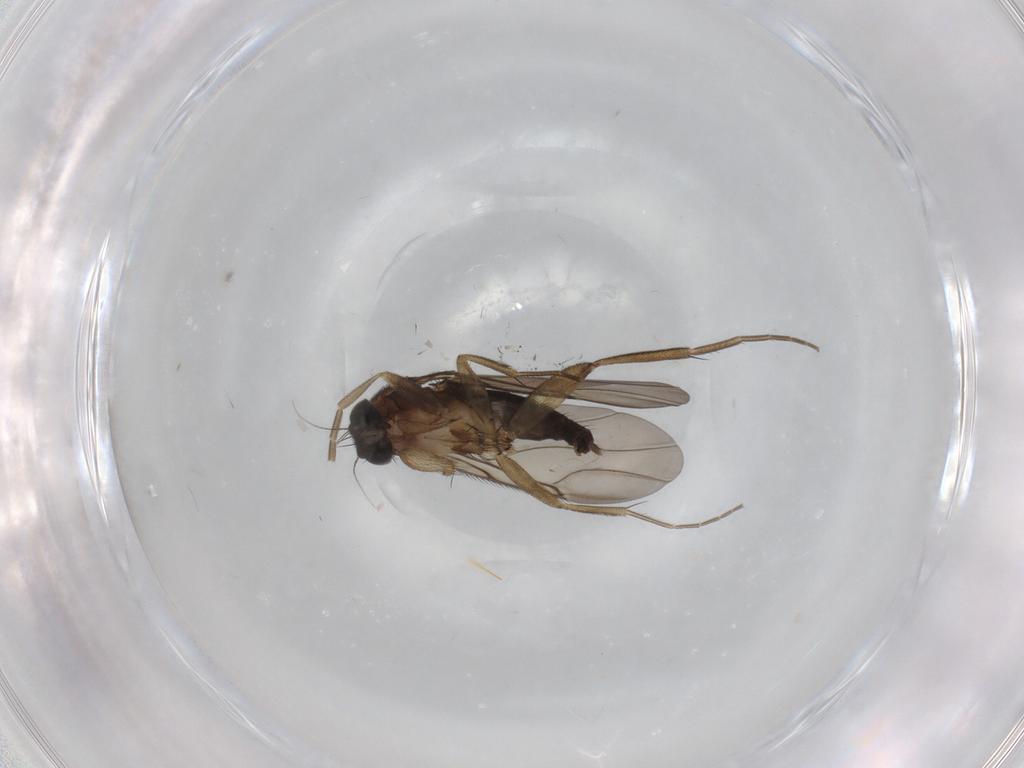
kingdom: Animalia
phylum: Arthropoda
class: Insecta
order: Diptera
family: Phoridae
